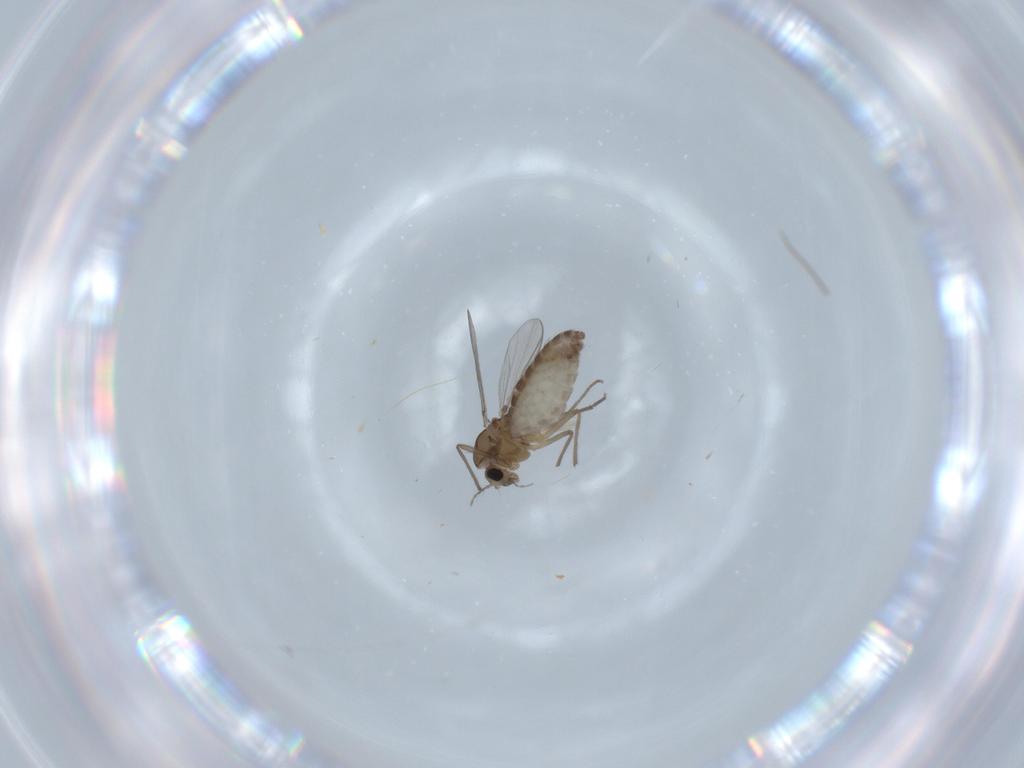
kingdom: Animalia
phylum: Arthropoda
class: Insecta
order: Diptera
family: Chironomidae
